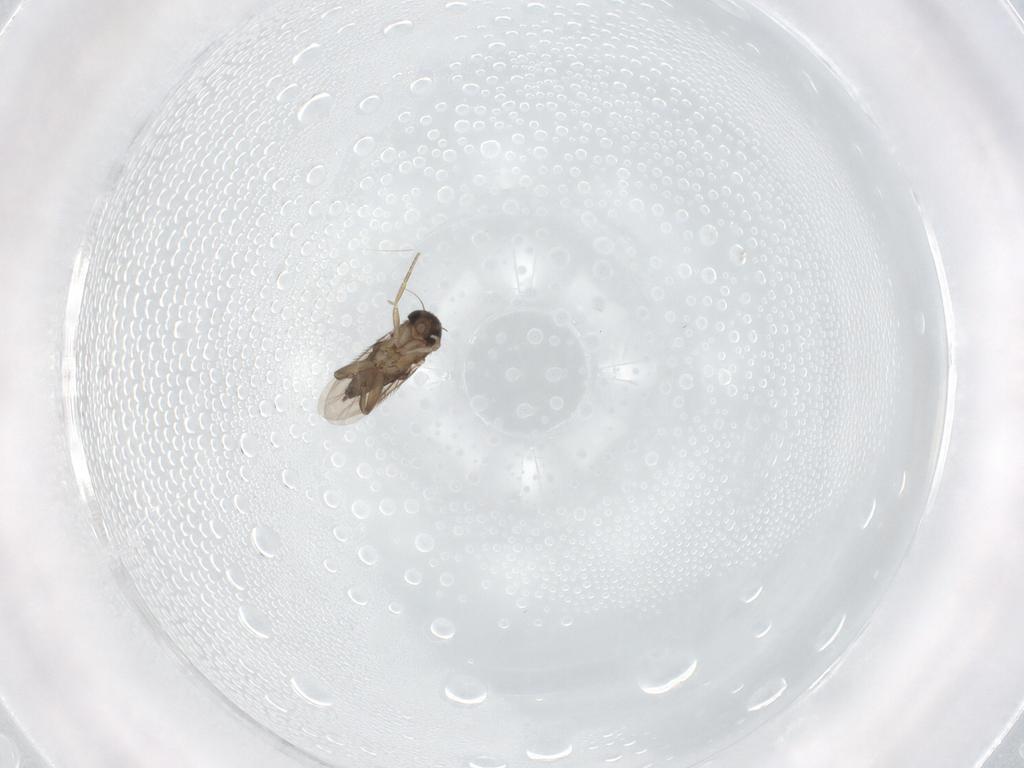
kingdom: Animalia
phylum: Arthropoda
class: Insecta
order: Diptera
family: Phoridae
